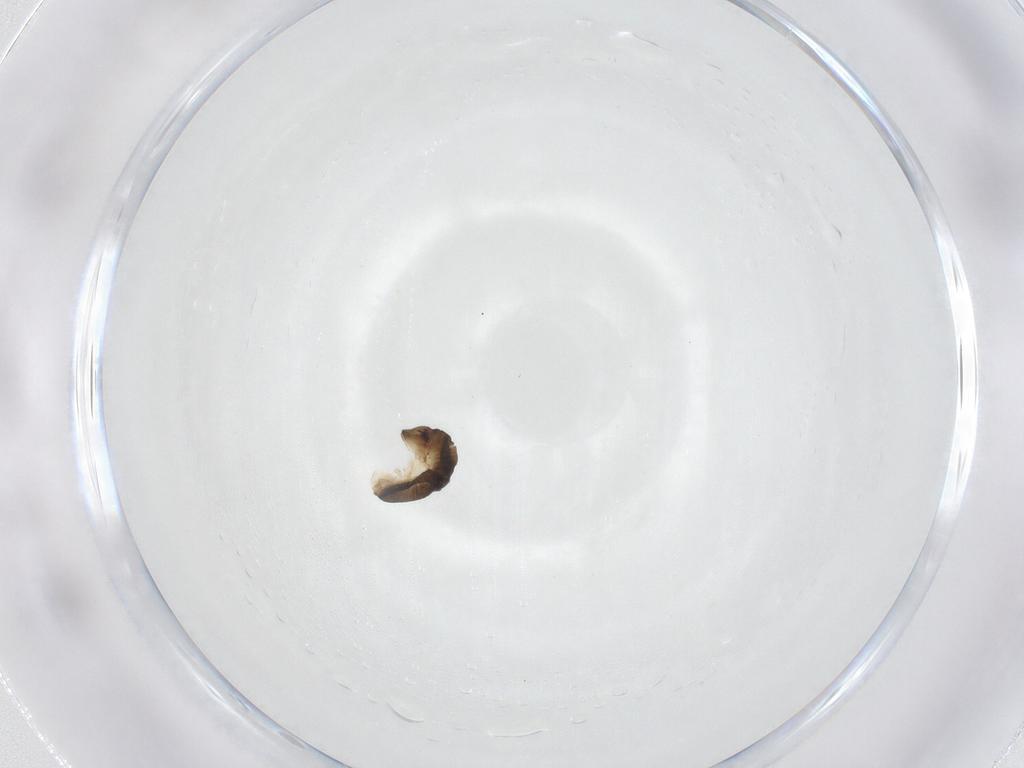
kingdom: Animalia
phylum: Arthropoda
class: Insecta
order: Hymenoptera
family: Dryinidae
